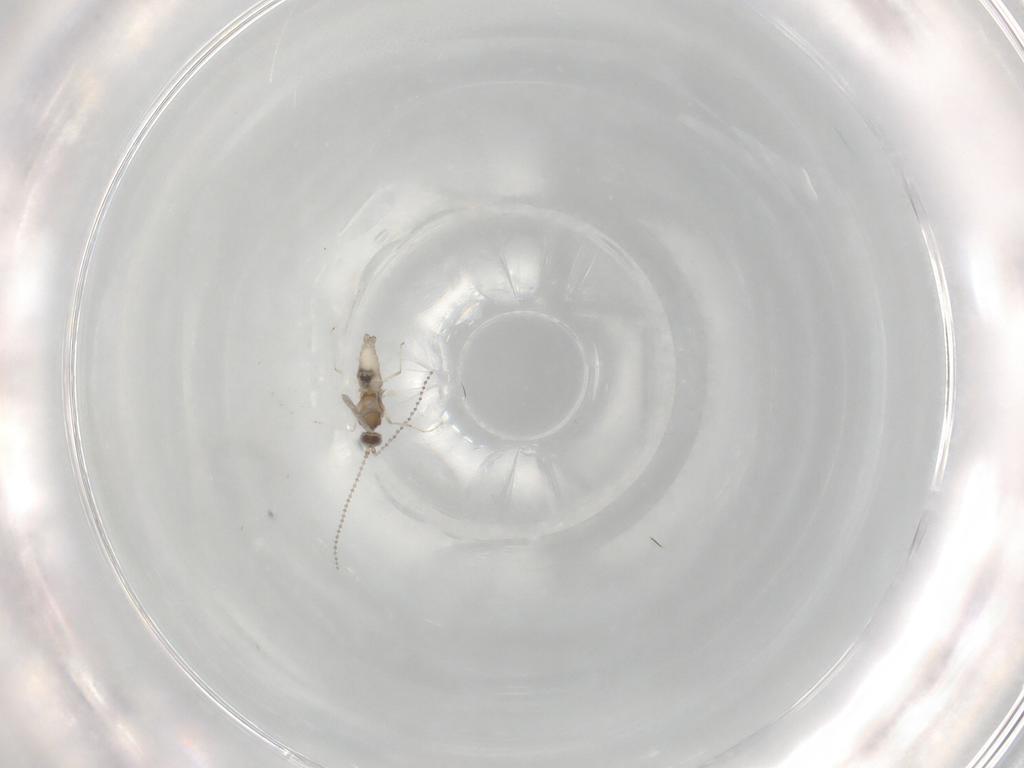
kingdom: Animalia
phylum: Arthropoda
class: Insecta
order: Diptera
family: Cecidomyiidae
